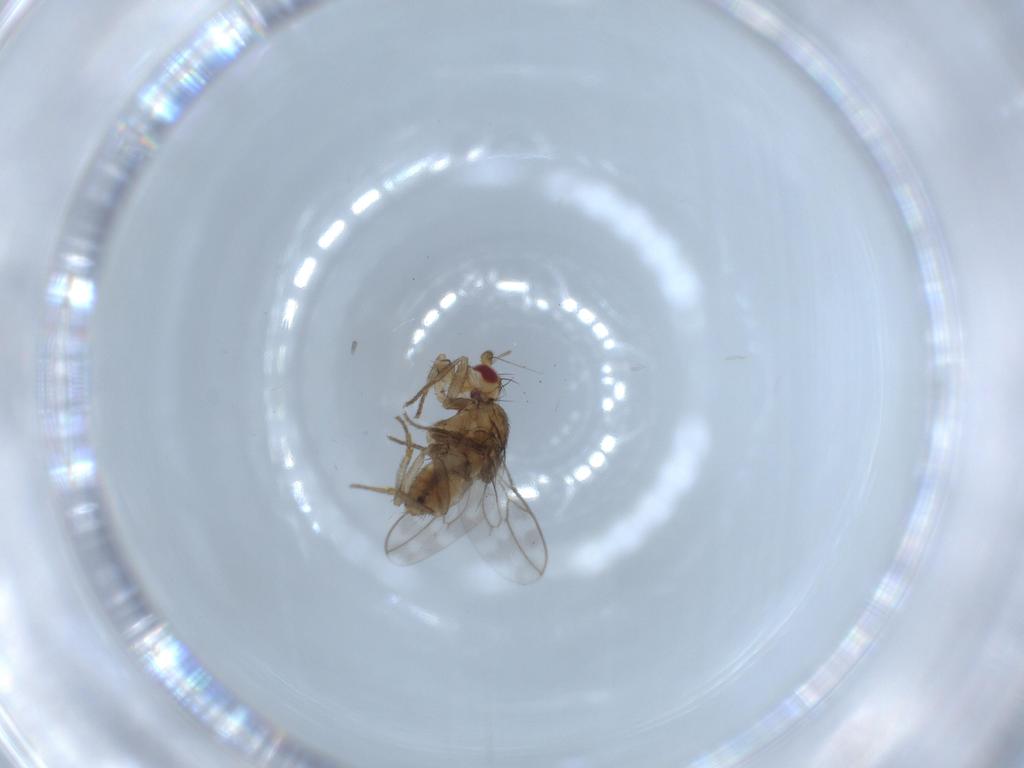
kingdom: Animalia
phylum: Arthropoda
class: Insecta
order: Diptera
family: Sphaeroceridae
